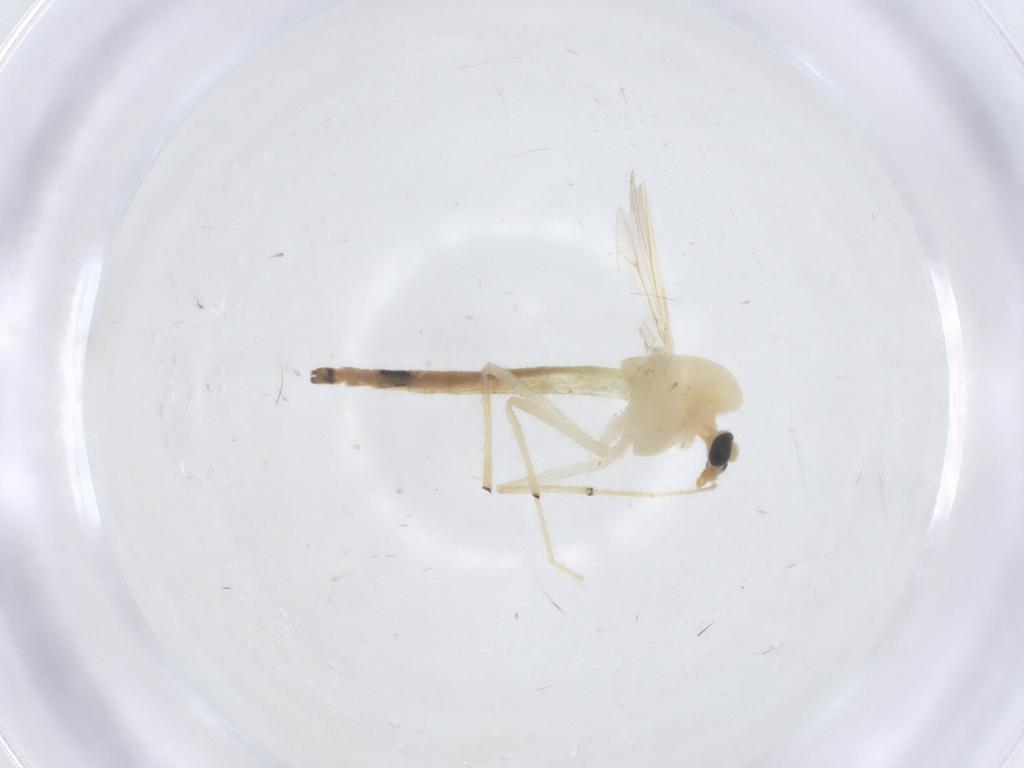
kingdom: Animalia
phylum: Arthropoda
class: Insecta
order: Diptera
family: Chironomidae
